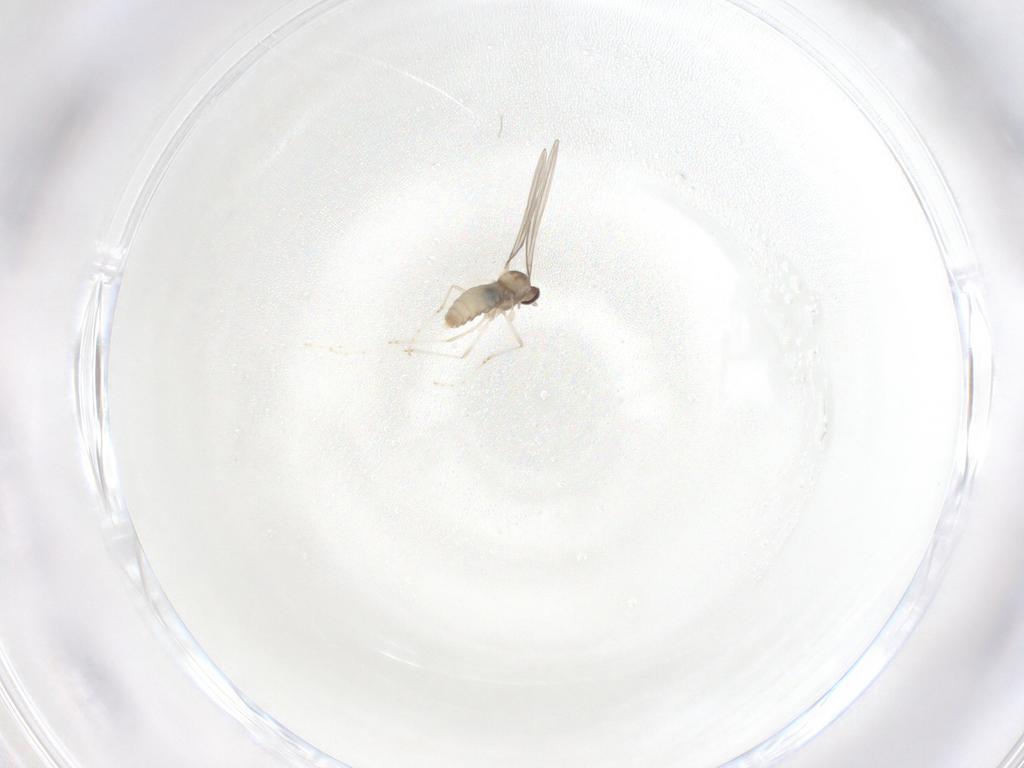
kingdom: Animalia
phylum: Arthropoda
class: Insecta
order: Diptera
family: Cecidomyiidae
